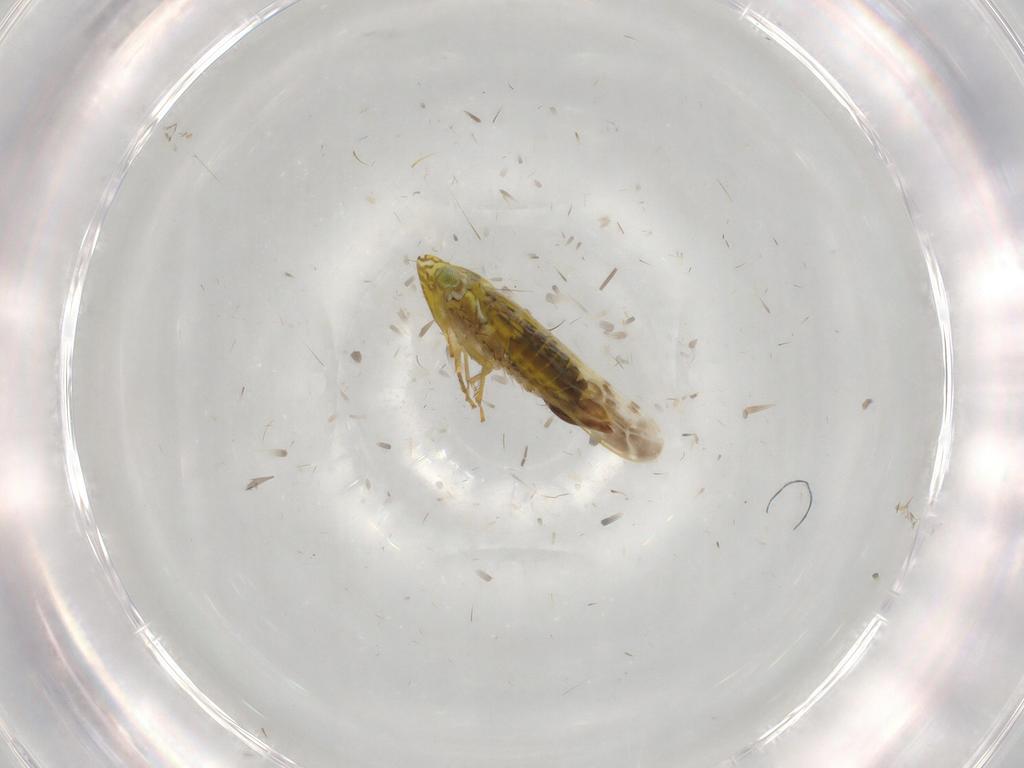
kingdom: Animalia
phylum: Arthropoda
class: Insecta
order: Hemiptera
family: Cicadellidae
